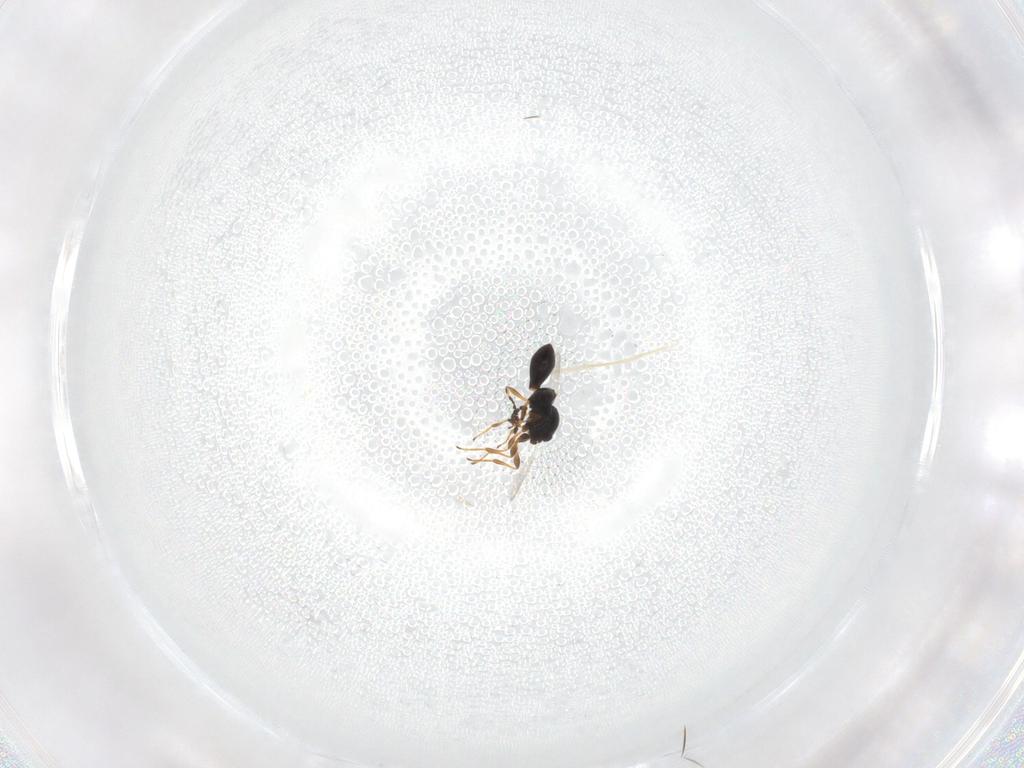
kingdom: Animalia
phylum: Arthropoda
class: Insecta
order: Hymenoptera
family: Platygastridae
